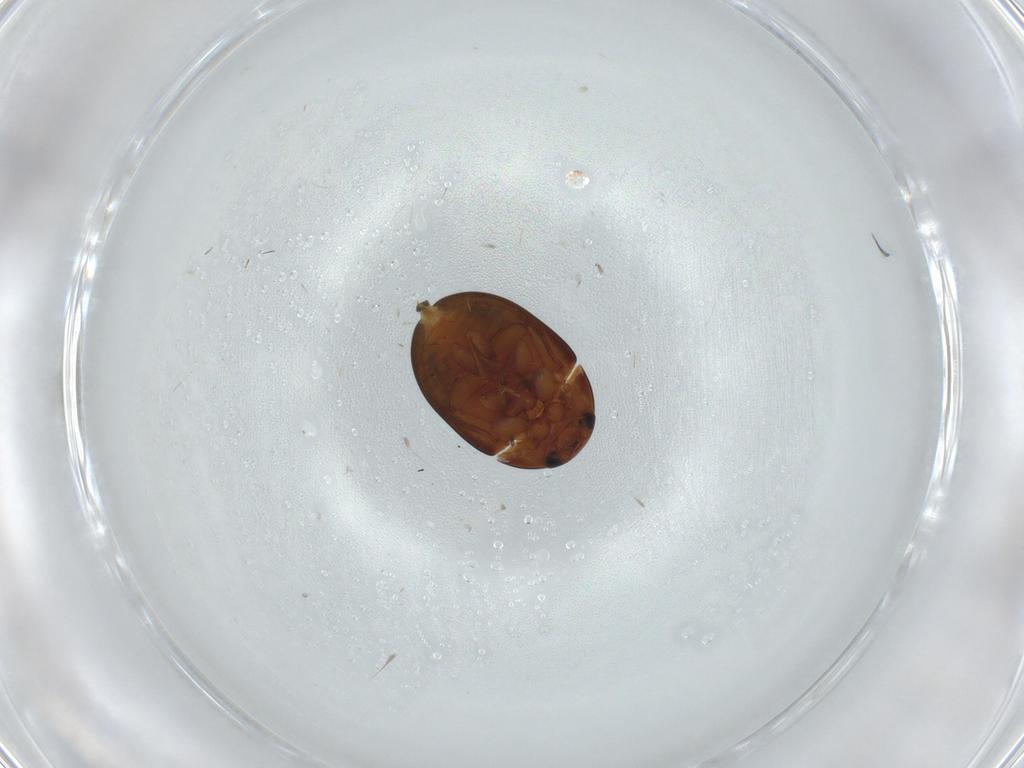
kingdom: Animalia
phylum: Arthropoda
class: Insecta
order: Coleoptera
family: Phalacridae
